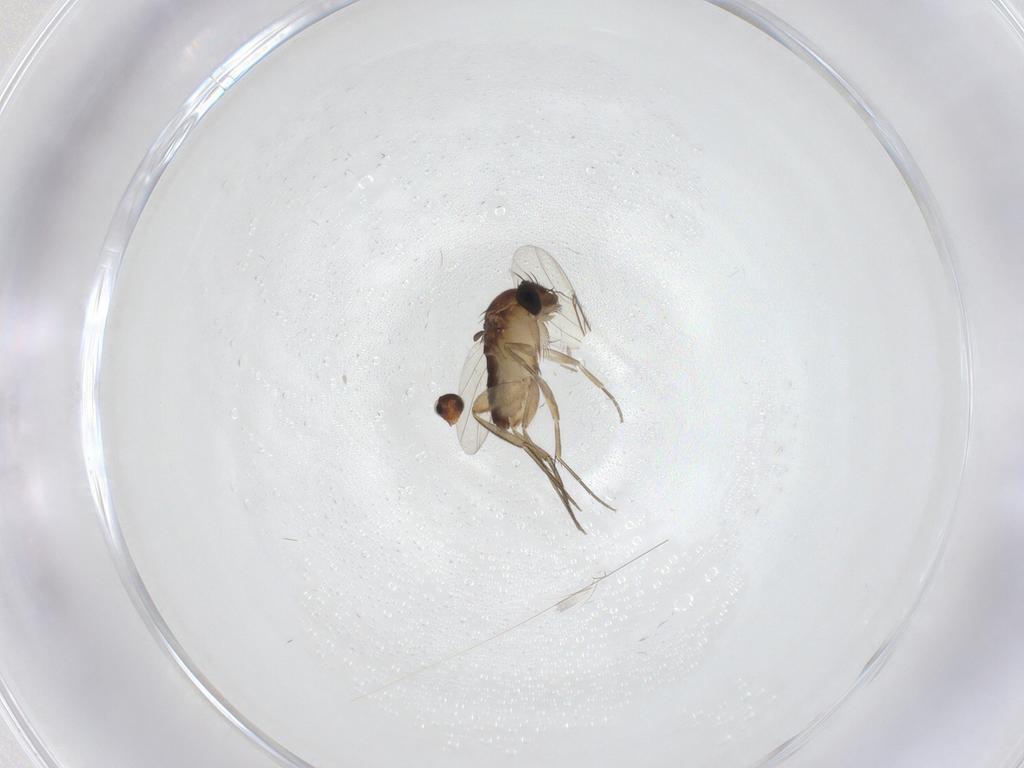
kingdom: Animalia
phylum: Arthropoda
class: Insecta
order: Diptera
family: Phoridae
